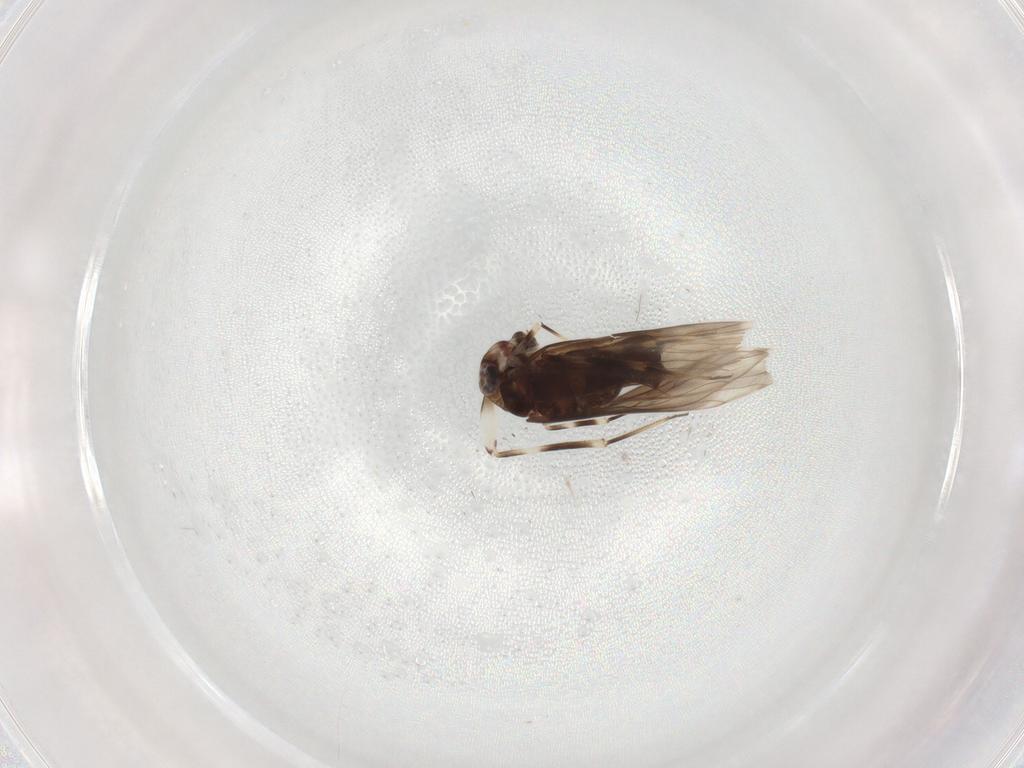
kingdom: Animalia
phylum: Arthropoda
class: Insecta
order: Psocodea
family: Amphientomidae
